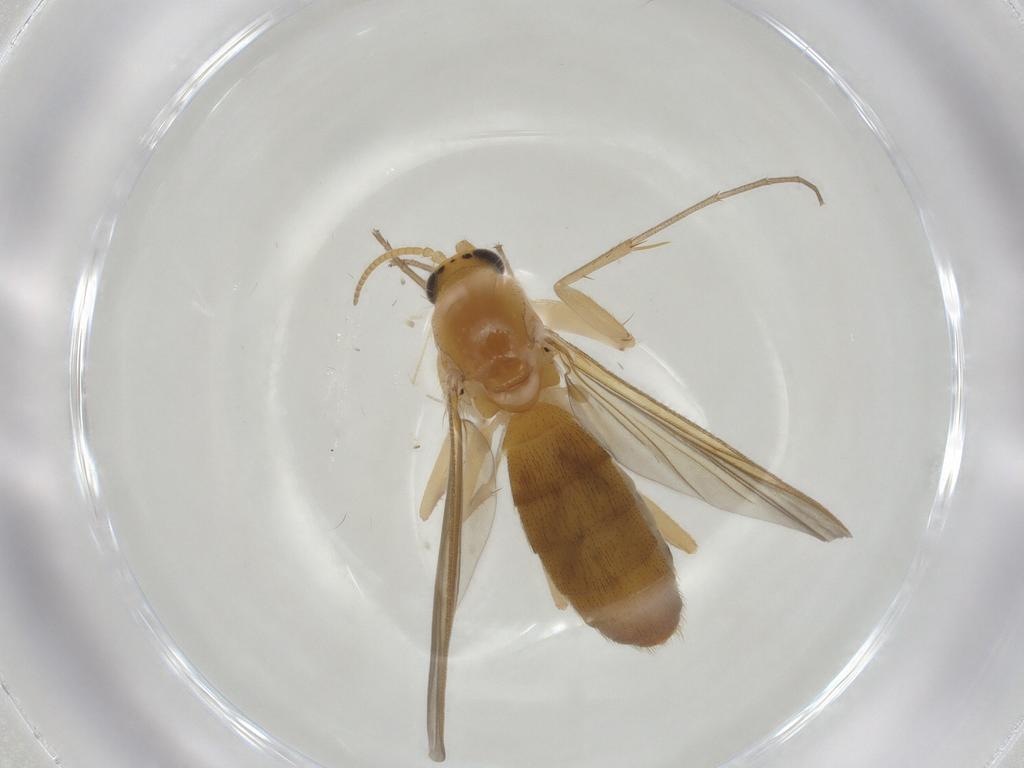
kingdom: Animalia
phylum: Arthropoda
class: Insecta
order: Diptera
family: Mycetophilidae
